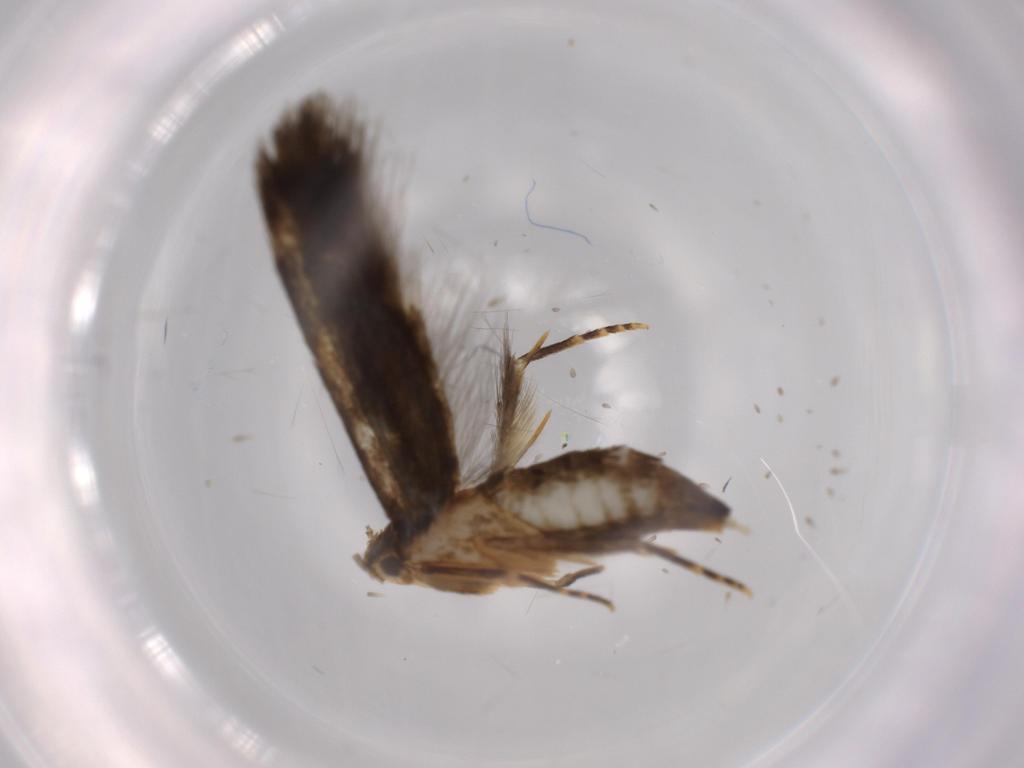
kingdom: Animalia
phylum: Arthropoda
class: Insecta
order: Lepidoptera
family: Tineidae
